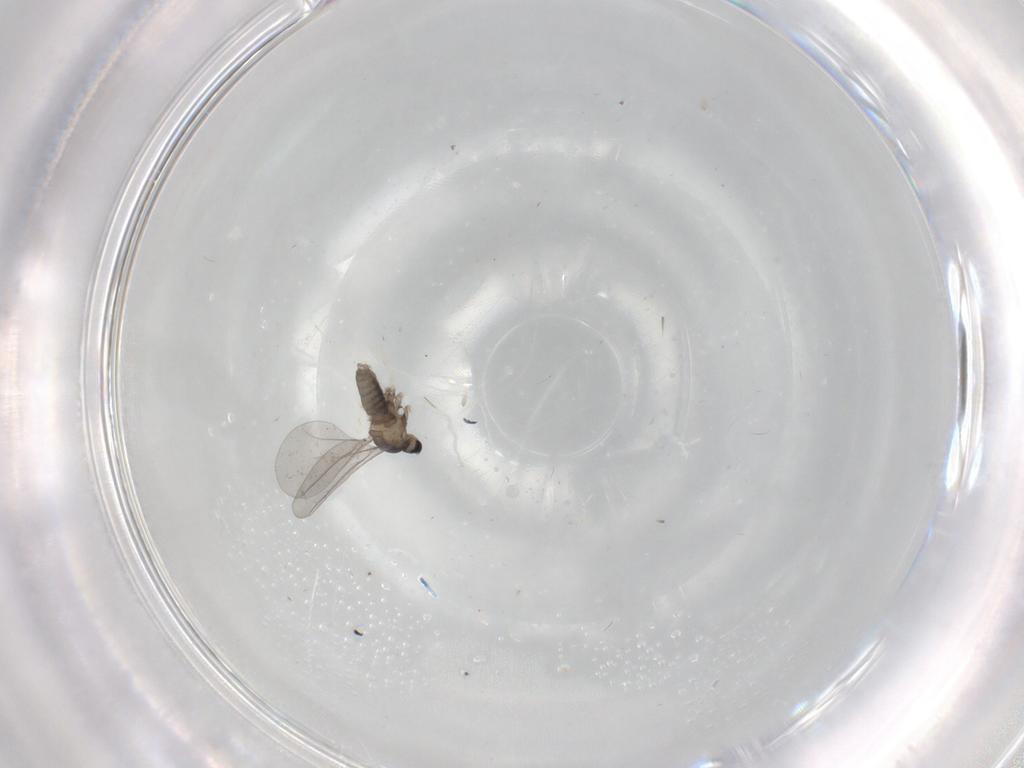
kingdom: Animalia
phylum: Arthropoda
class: Insecta
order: Diptera
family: Cecidomyiidae
